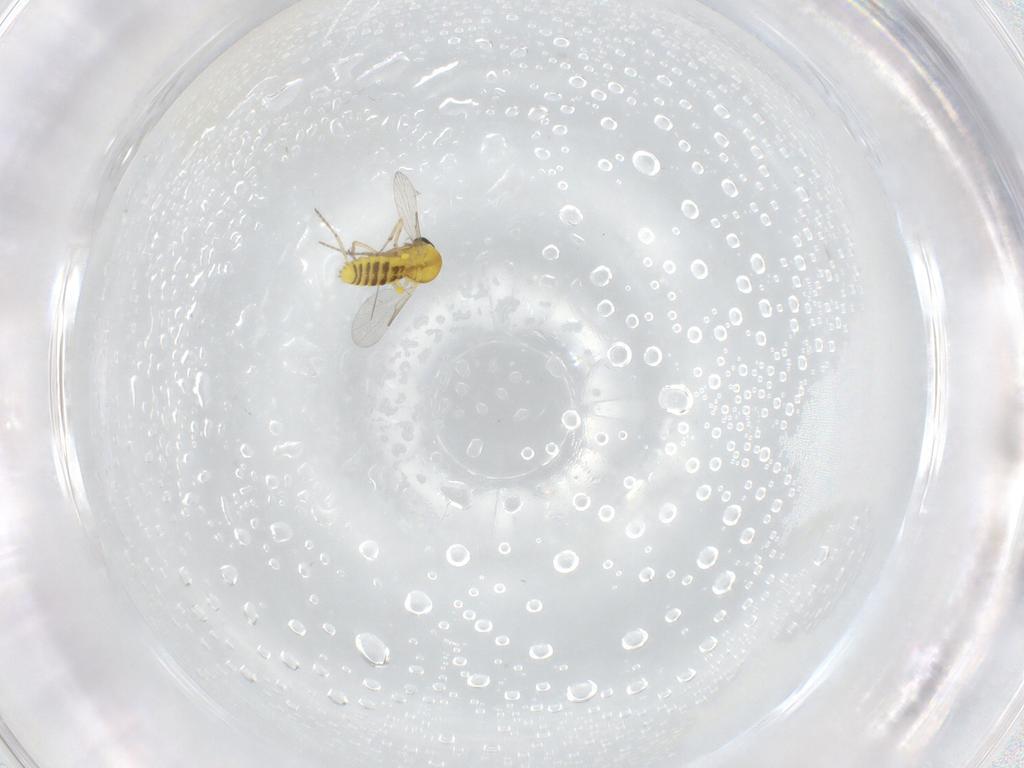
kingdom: Animalia
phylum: Arthropoda
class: Insecta
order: Diptera
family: Ceratopogonidae
